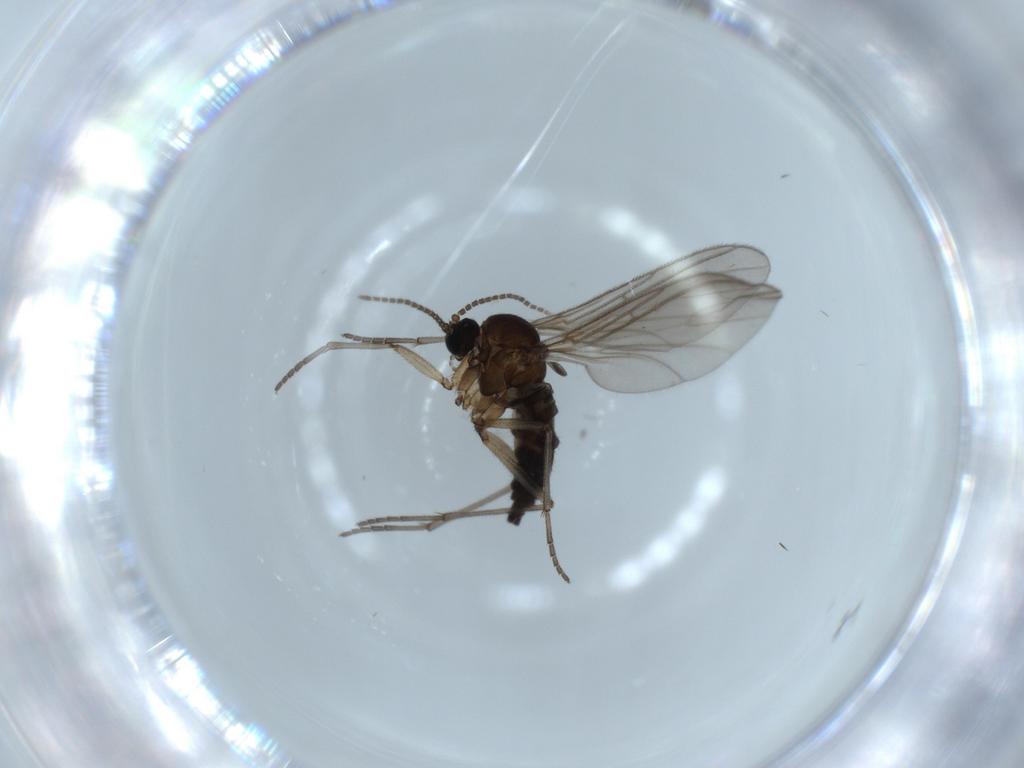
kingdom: Animalia
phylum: Arthropoda
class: Insecta
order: Diptera
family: Sciaridae
